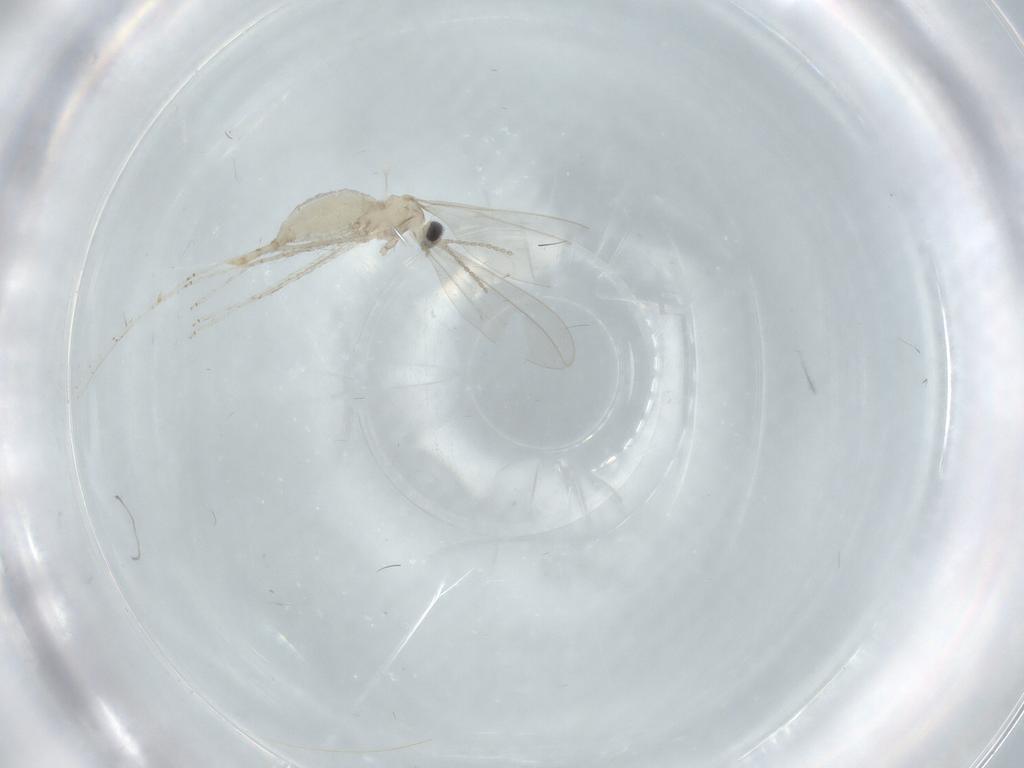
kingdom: Animalia
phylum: Arthropoda
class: Insecta
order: Diptera
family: Cecidomyiidae
